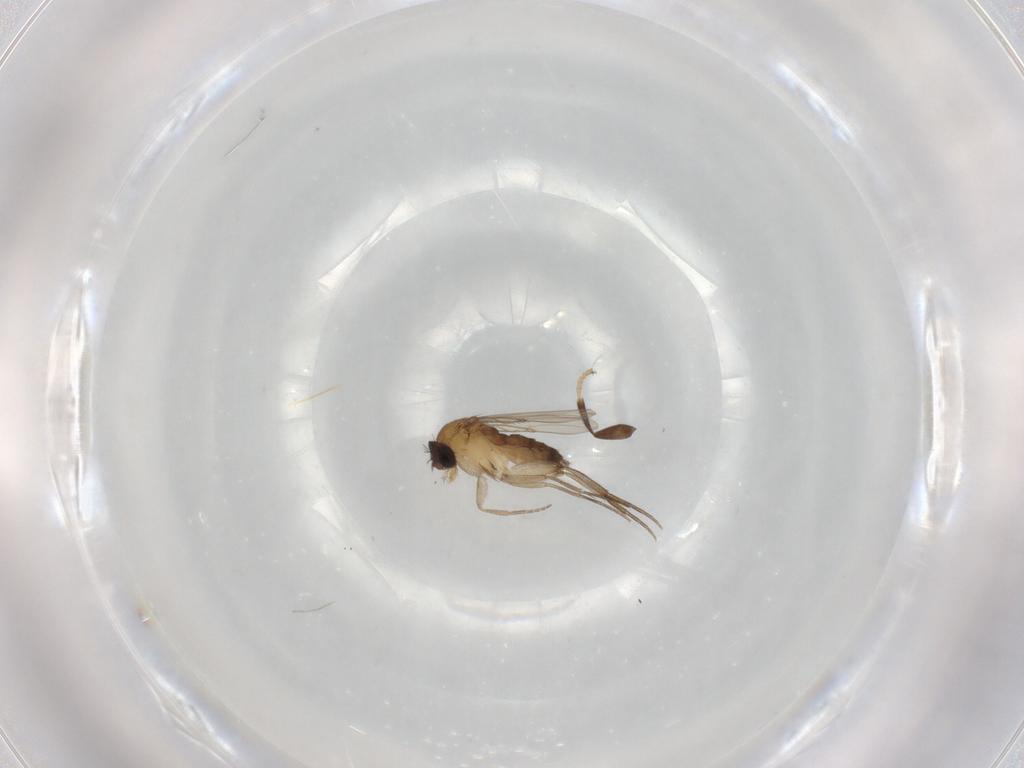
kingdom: Animalia
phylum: Arthropoda
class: Insecta
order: Diptera
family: Phoridae
